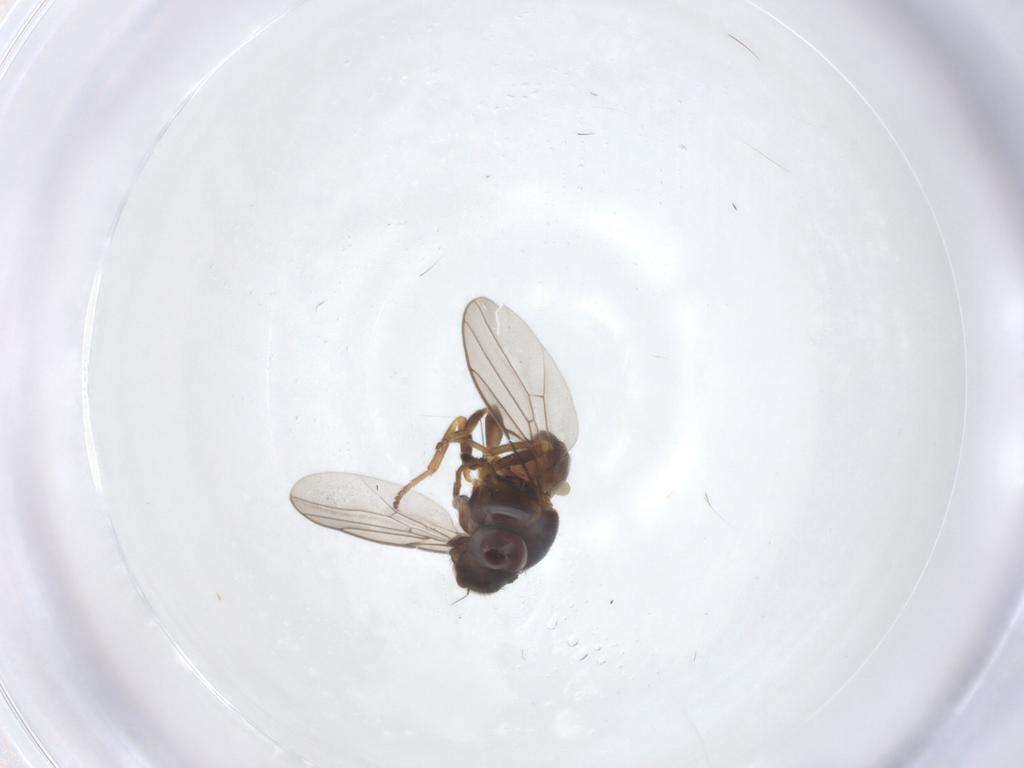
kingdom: Animalia
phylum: Arthropoda
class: Insecta
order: Diptera
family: Chloropidae
